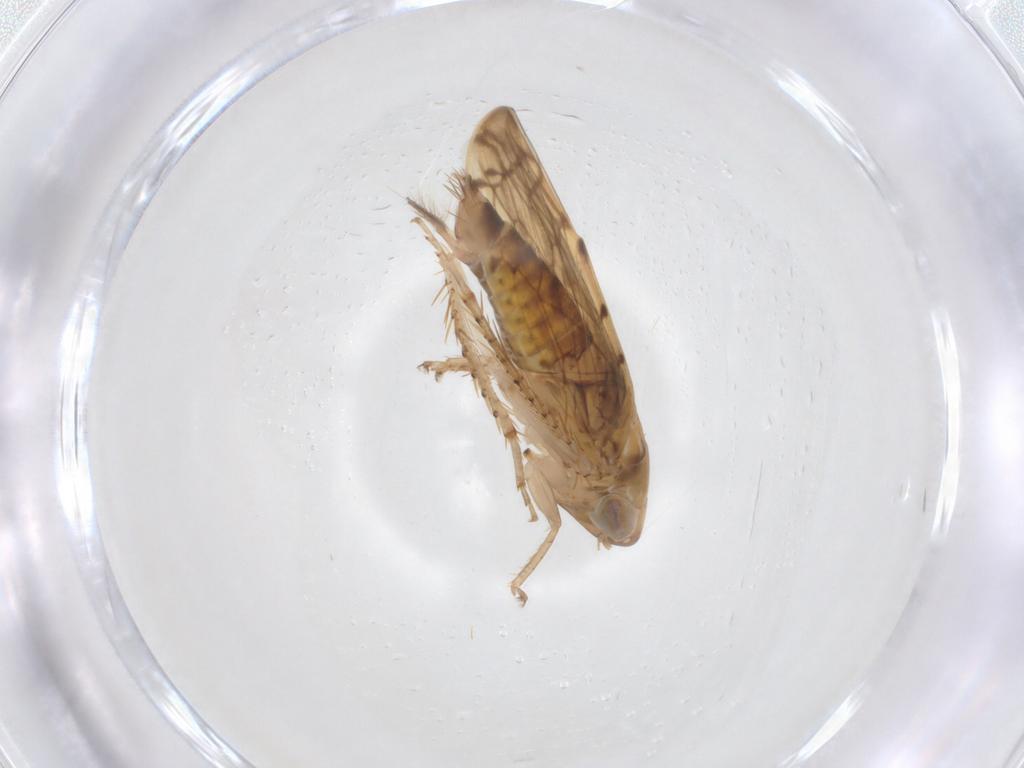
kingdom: Animalia
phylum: Arthropoda
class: Insecta
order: Hemiptera
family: Cicadellidae
